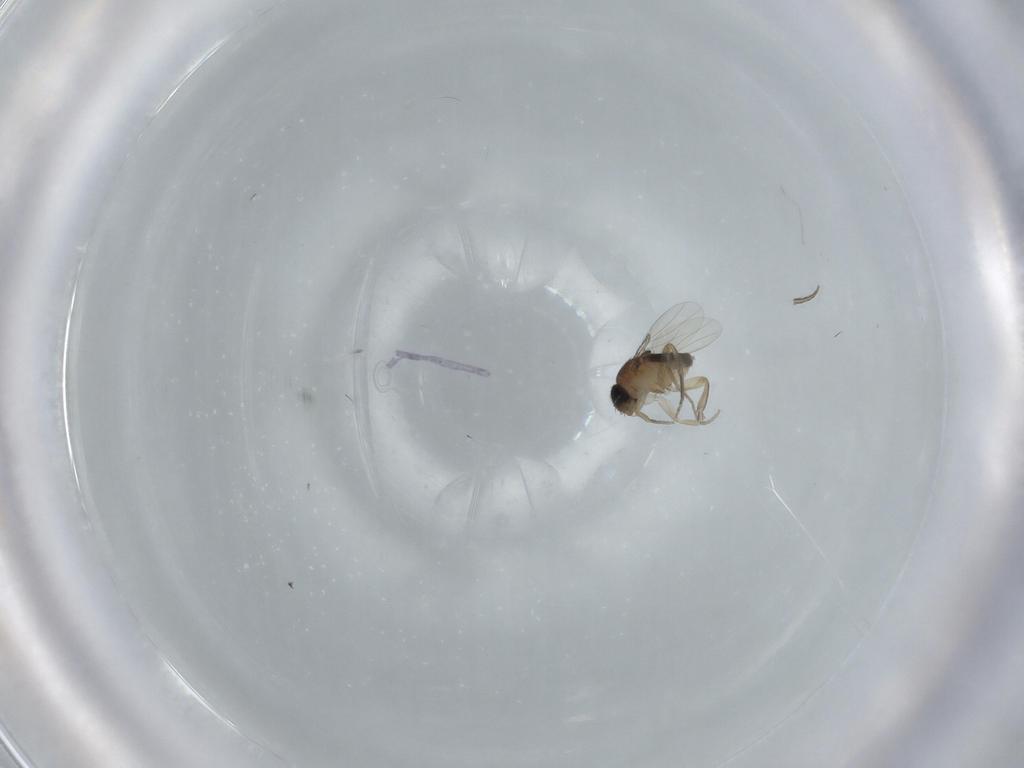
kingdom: Animalia
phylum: Arthropoda
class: Insecta
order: Diptera
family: Phoridae
